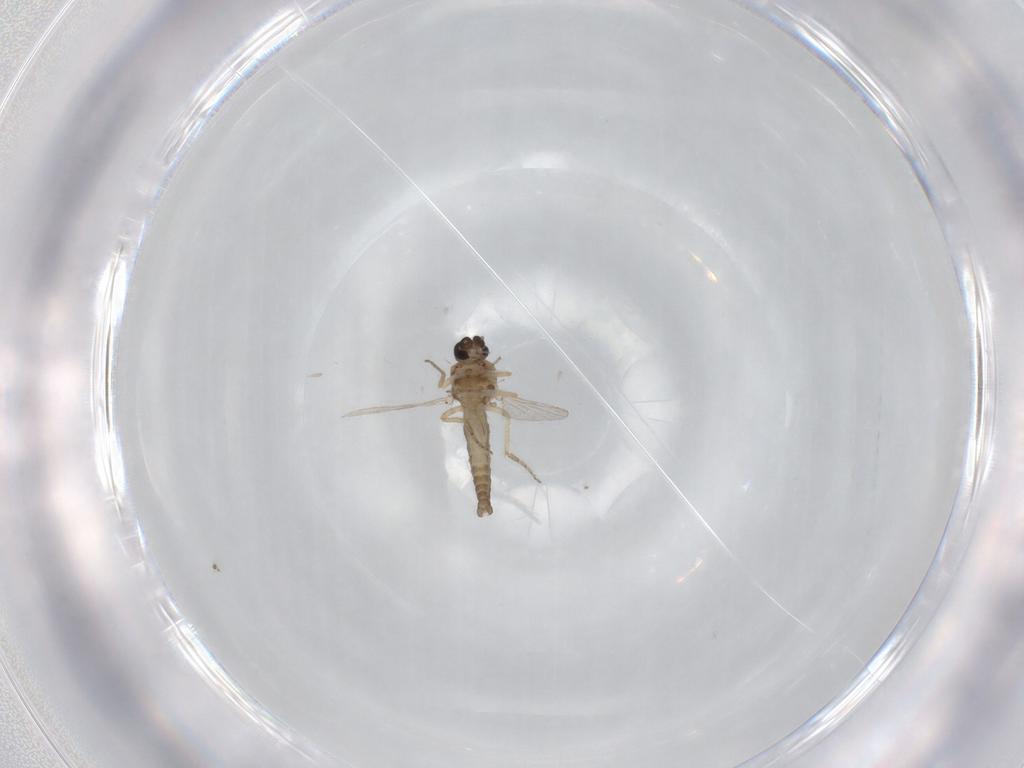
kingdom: Animalia
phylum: Arthropoda
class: Insecta
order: Diptera
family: Ceratopogonidae
